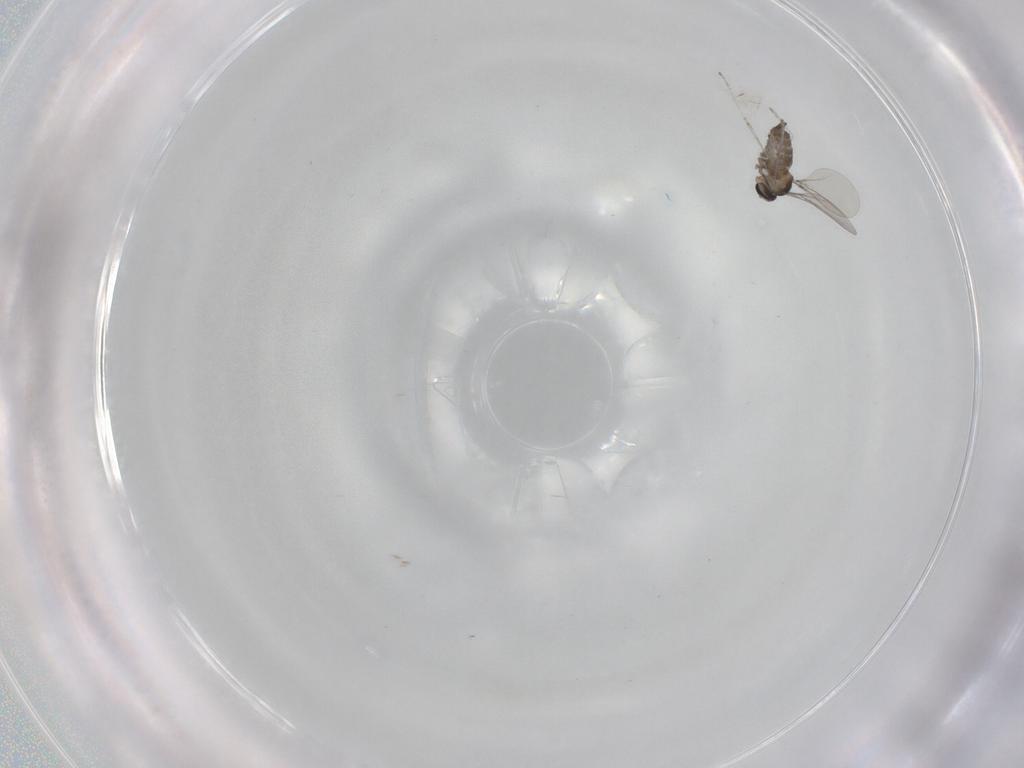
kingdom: Animalia
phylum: Arthropoda
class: Insecta
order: Diptera
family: Cecidomyiidae
